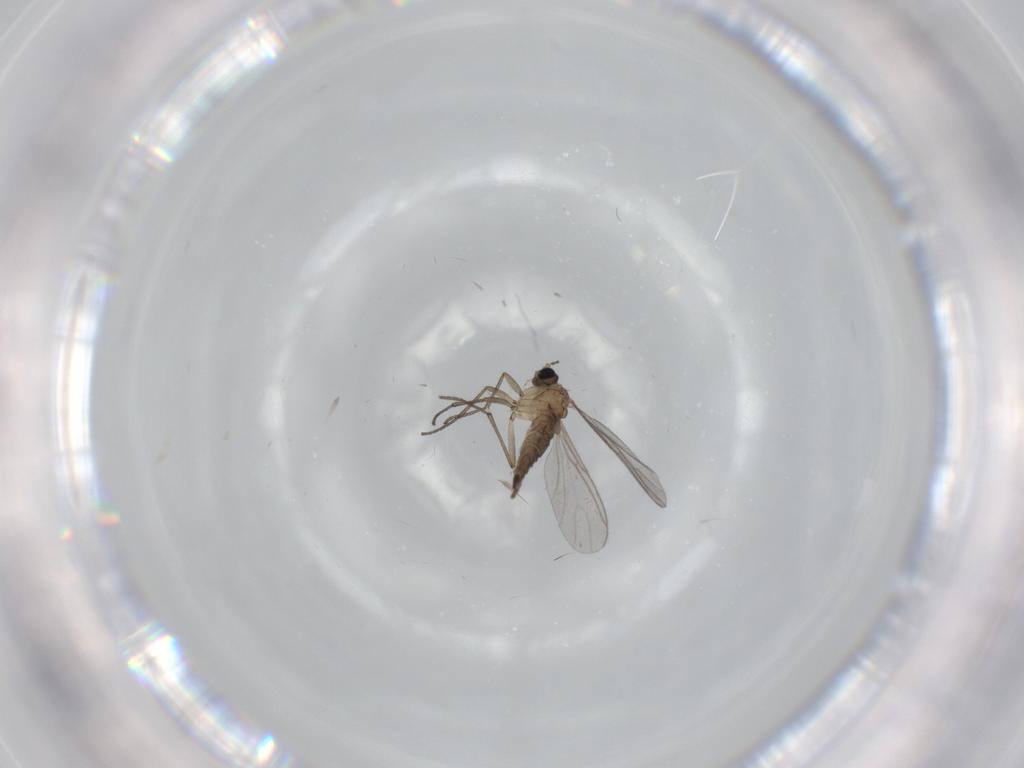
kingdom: Animalia
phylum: Arthropoda
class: Insecta
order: Diptera
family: Sciaridae
